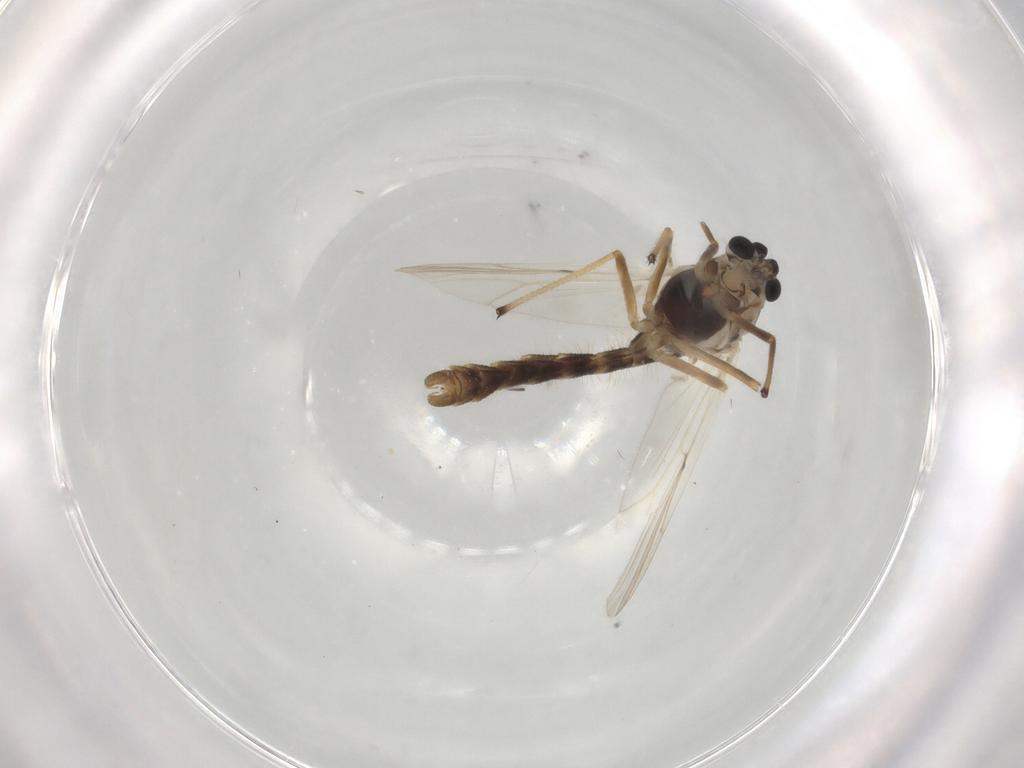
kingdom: Animalia
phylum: Arthropoda
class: Insecta
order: Diptera
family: Chironomidae
